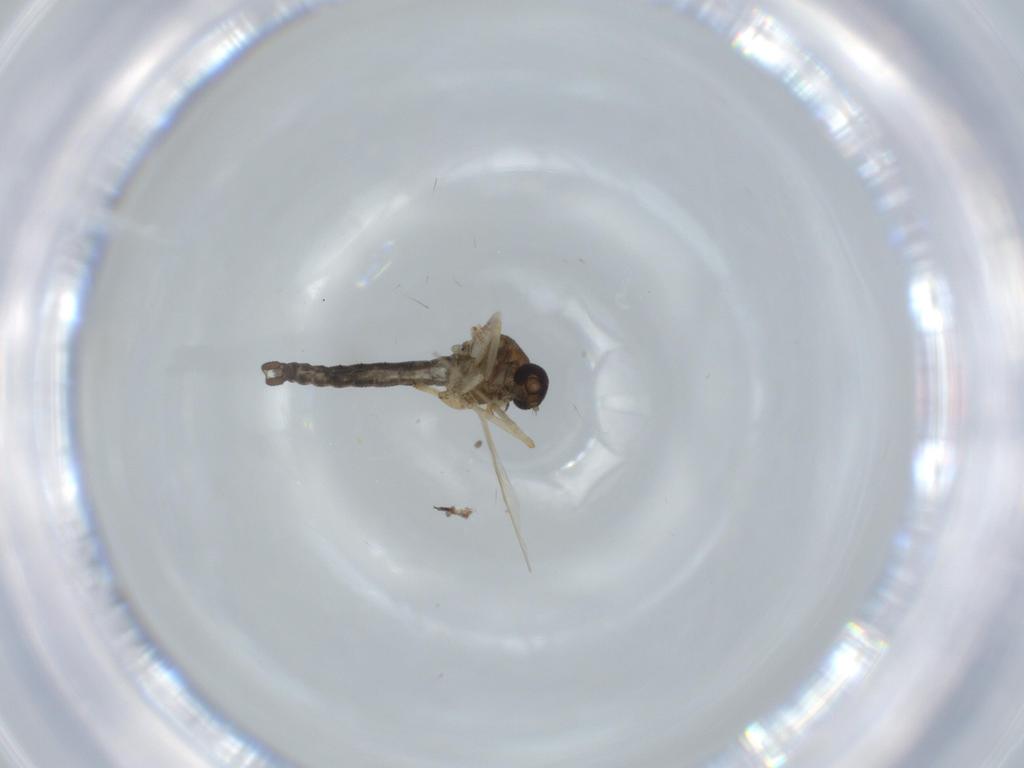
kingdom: Animalia
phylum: Arthropoda
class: Insecta
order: Diptera
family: Ceratopogonidae
